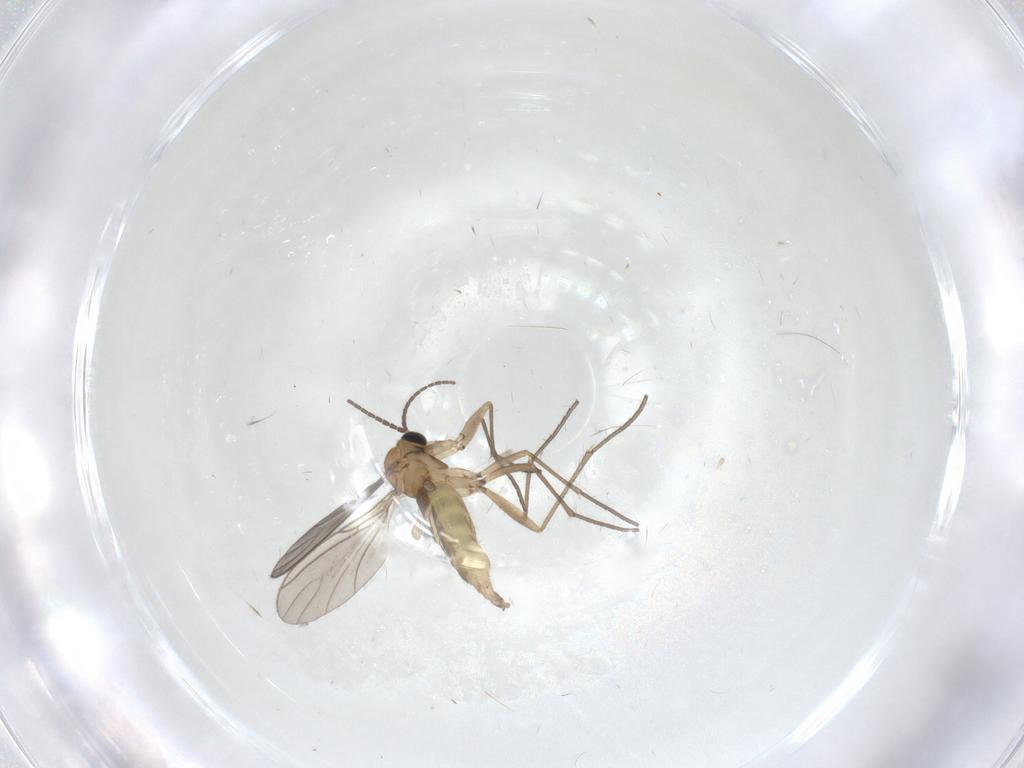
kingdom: Animalia
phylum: Arthropoda
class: Insecta
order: Diptera
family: Sciaridae
